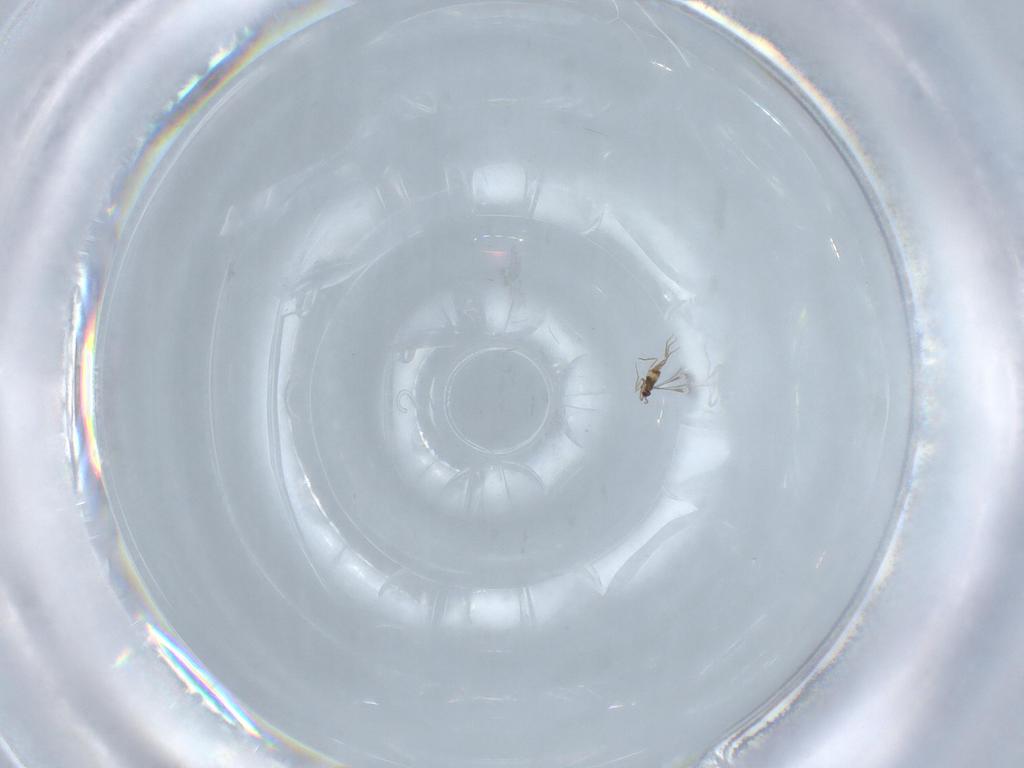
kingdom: Animalia
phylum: Arthropoda
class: Insecta
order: Hymenoptera
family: Mymaridae
